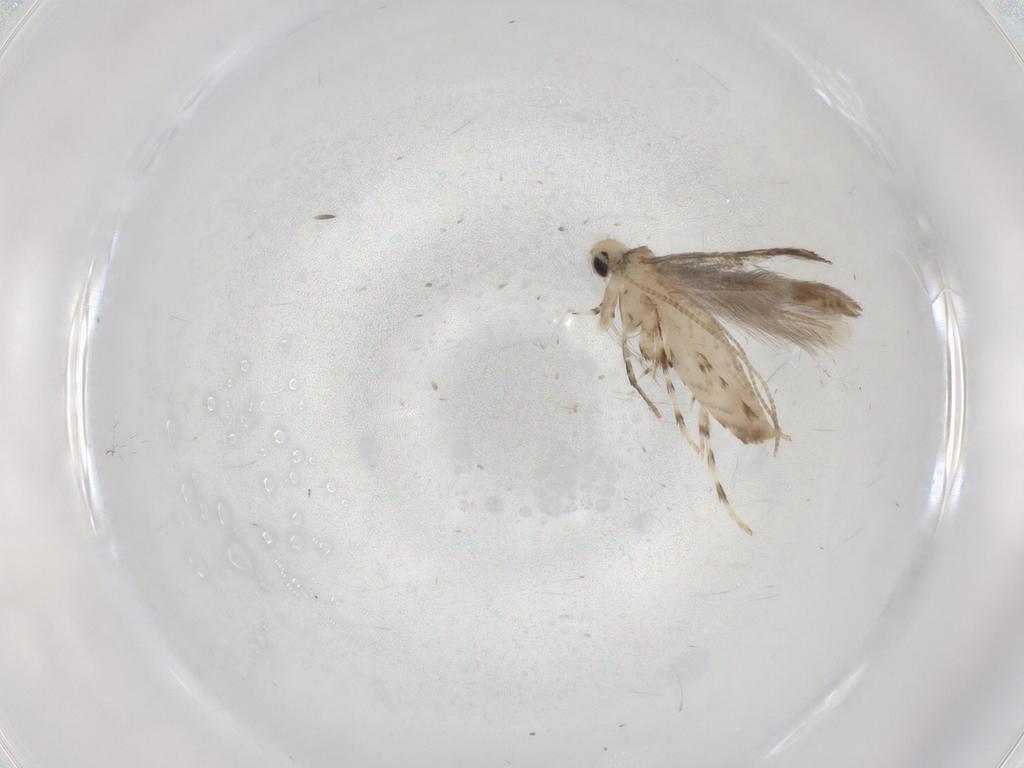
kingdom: Animalia
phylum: Arthropoda
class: Insecta
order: Lepidoptera
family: Gracillariidae
